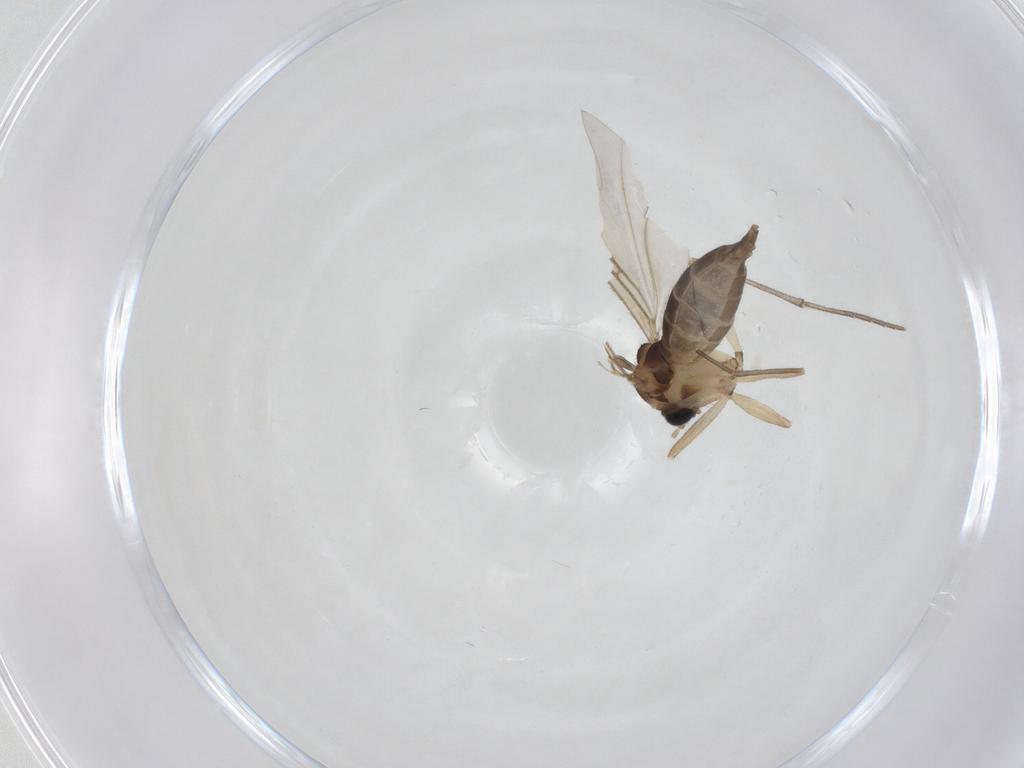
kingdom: Animalia
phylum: Arthropoda
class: Insecta
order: Diptera
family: Sciaridae
